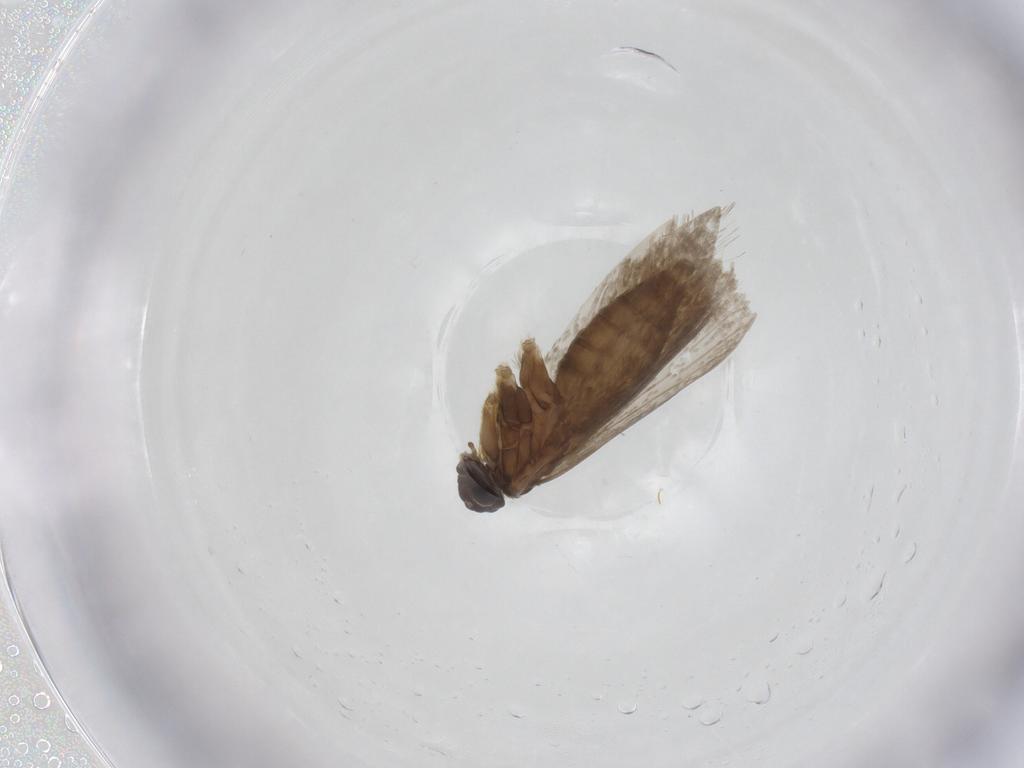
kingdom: Animalia
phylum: Arthropoda
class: Insecta
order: Lepidoptera
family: Micropterigidae
